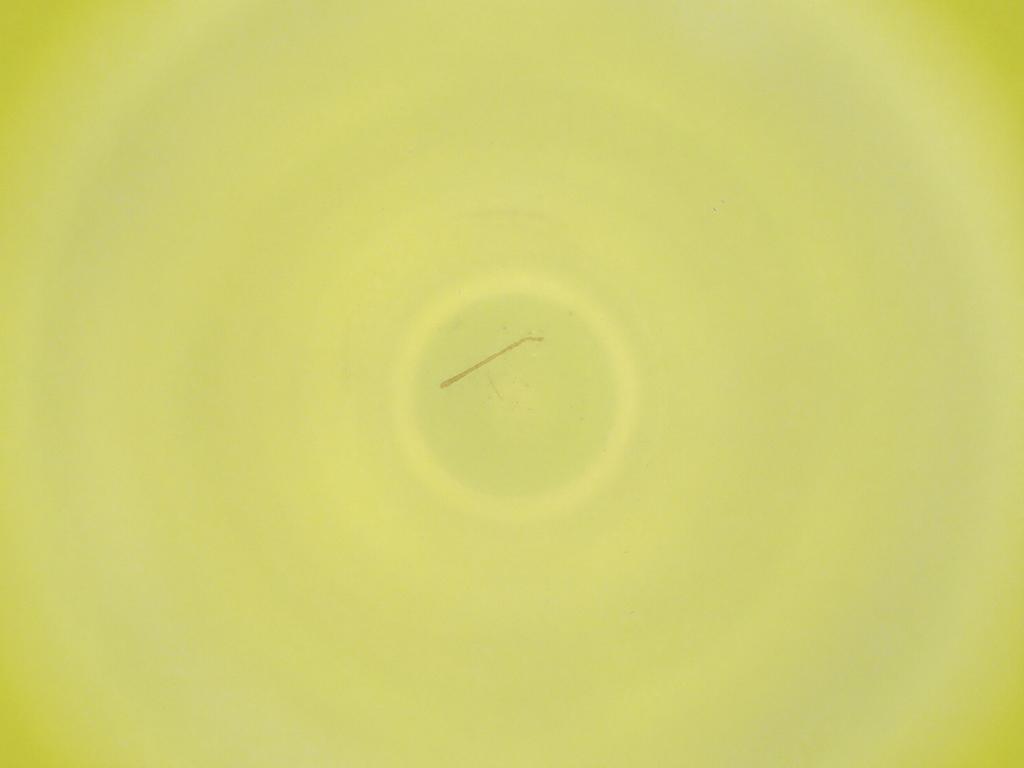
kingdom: Animalia
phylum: Arthropoda
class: Insecta
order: Diptera
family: Cecidomyiidae
